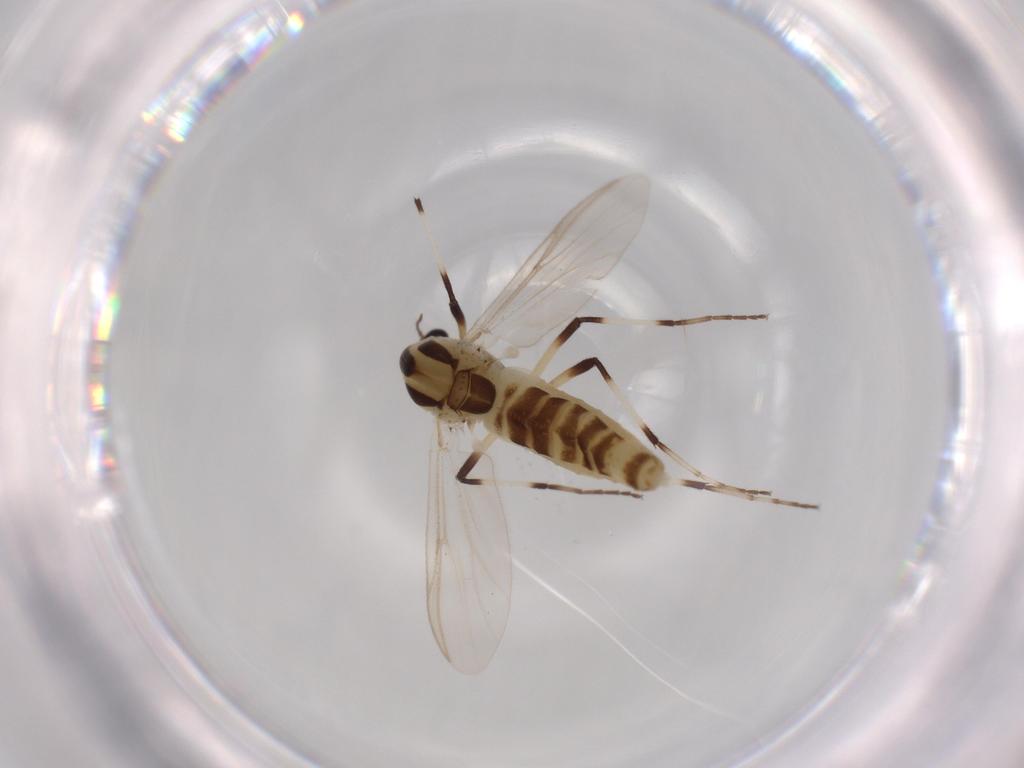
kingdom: Animalia
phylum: Arthropoda
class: Insecta
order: Diptera
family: Chironomidae
